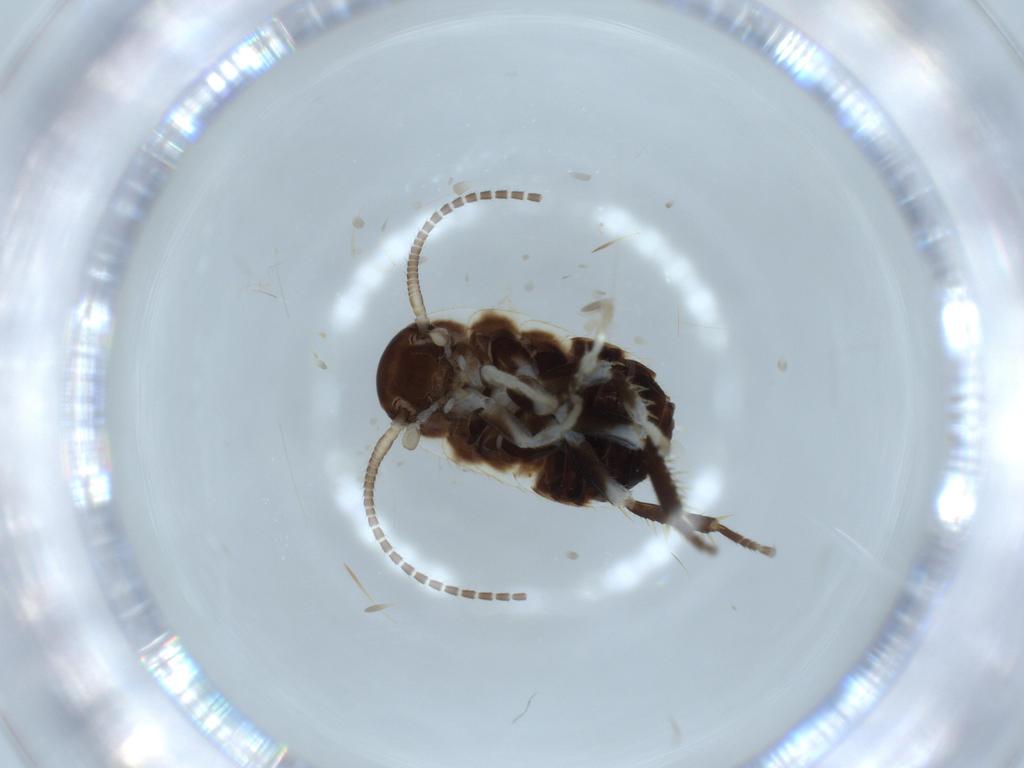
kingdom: Animalia
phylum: Arthropoda
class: Insecta
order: Blattodea
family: Ectobiidae
